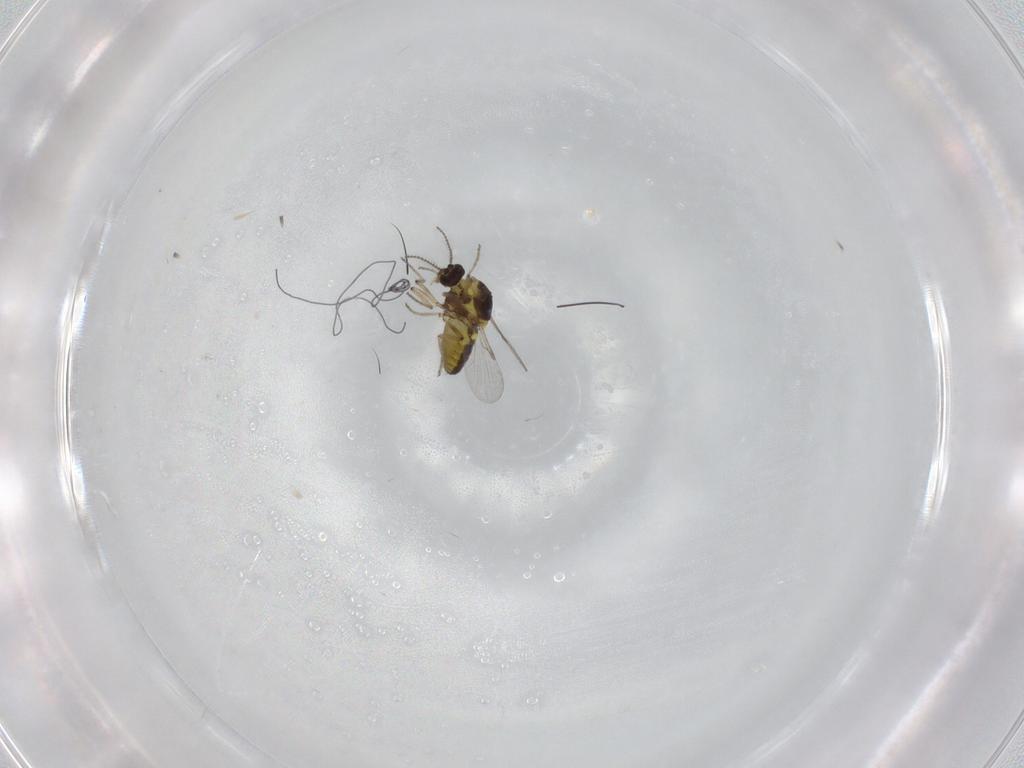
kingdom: Animalia
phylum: Arthropoda
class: Insecta
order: Diptera
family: Ceratopogonidae
